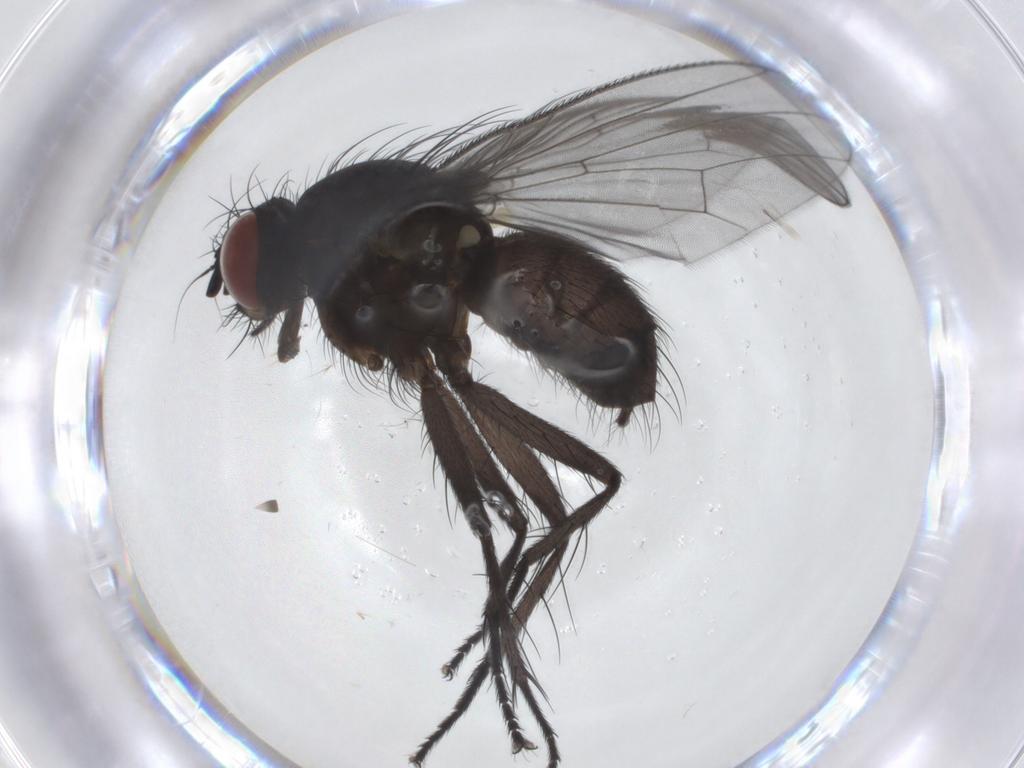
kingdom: Animalia
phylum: Arthropoda
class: Insecta
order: Diptera
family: Muscidae
